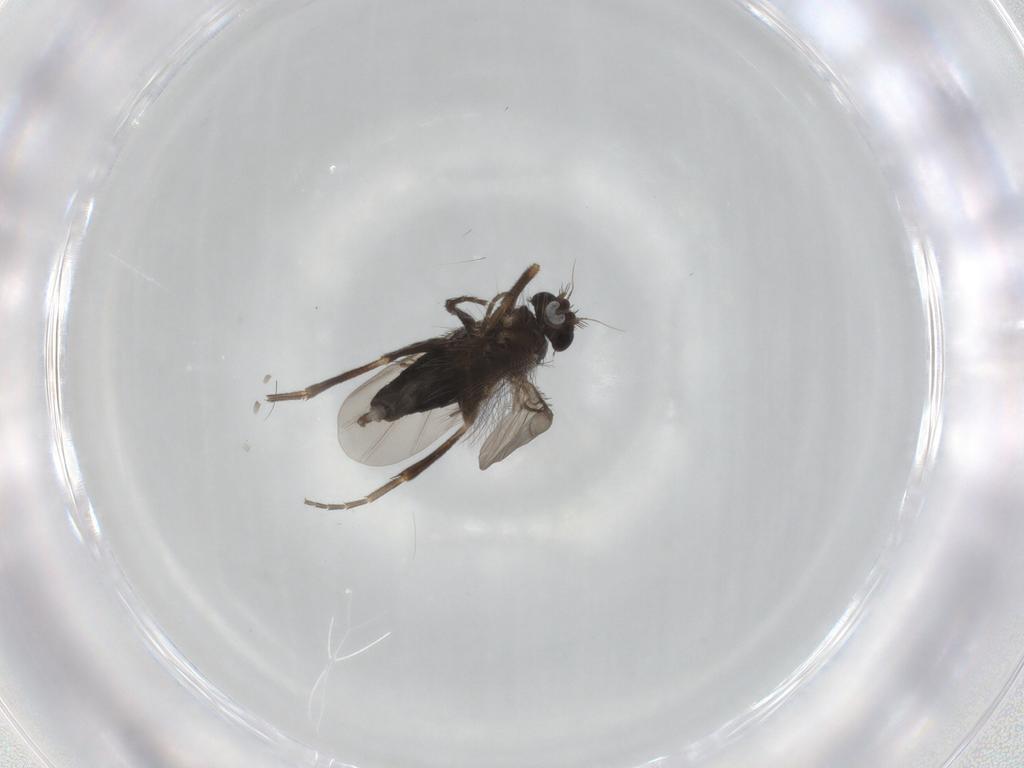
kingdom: Animalia
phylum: Arthropoda
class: Insecta
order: Diptera
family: Phoridae
